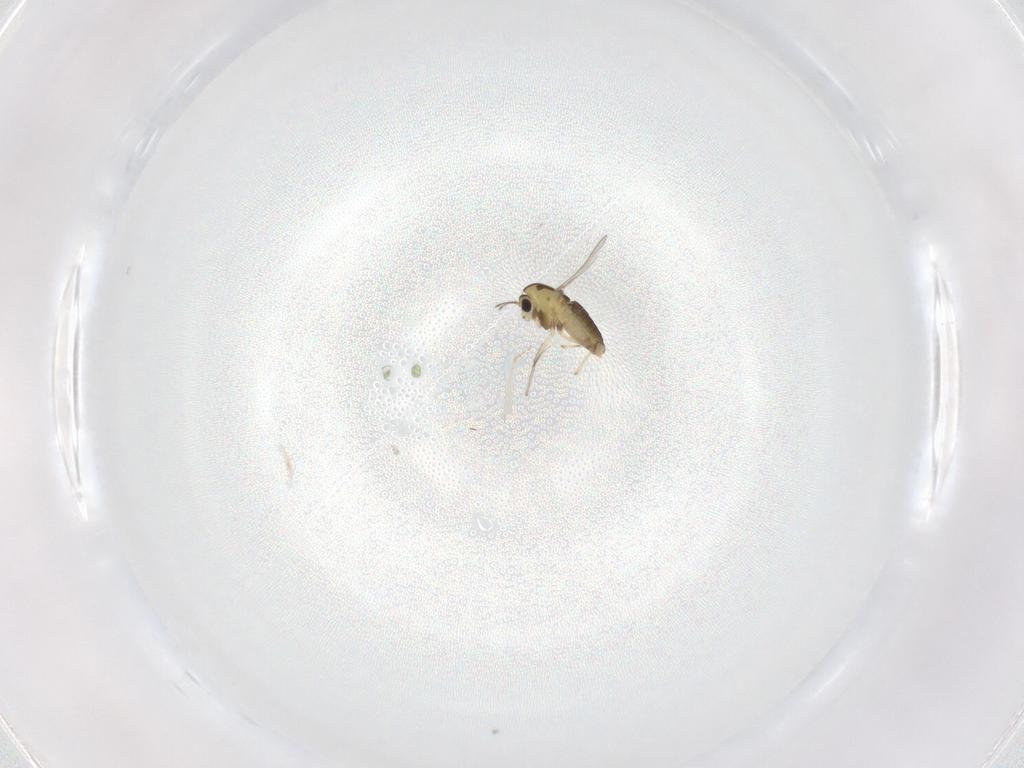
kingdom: Animalia
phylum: Arthropoda
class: Insecta
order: Diptera
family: Chironomidae
